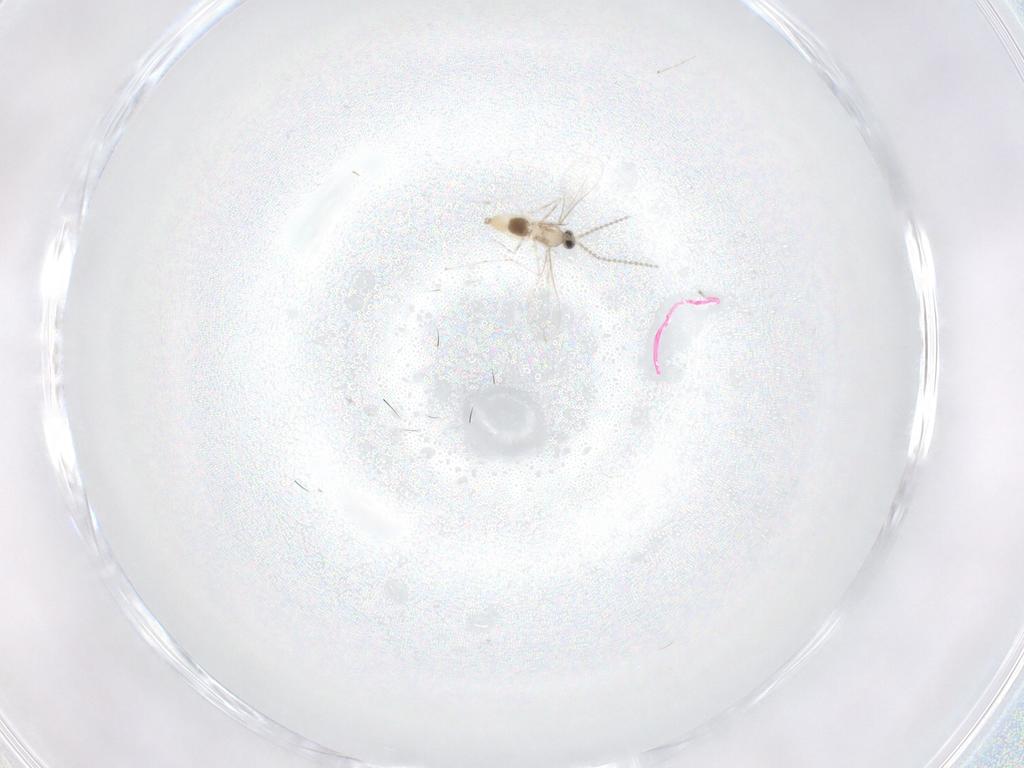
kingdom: Animalia
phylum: Arthropoda
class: Insecta
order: Diptera
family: Cecidomyiidae
